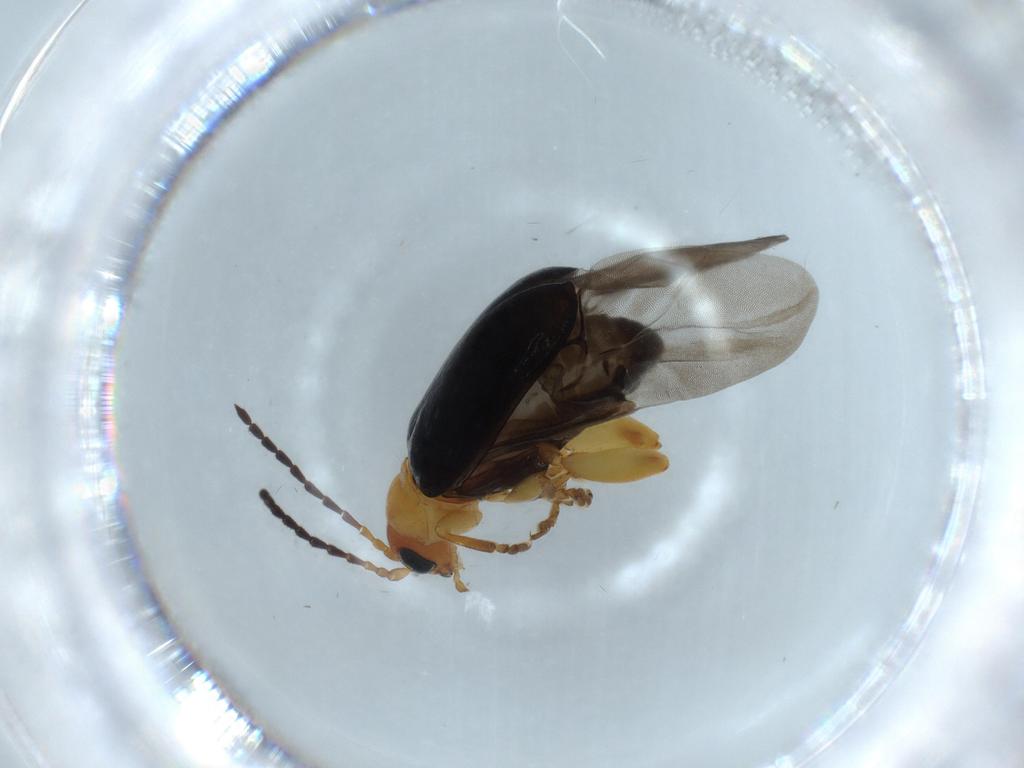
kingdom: Animalia
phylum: Arthropoda
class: Insecta
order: Coleoptera
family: Chrysomelidae
